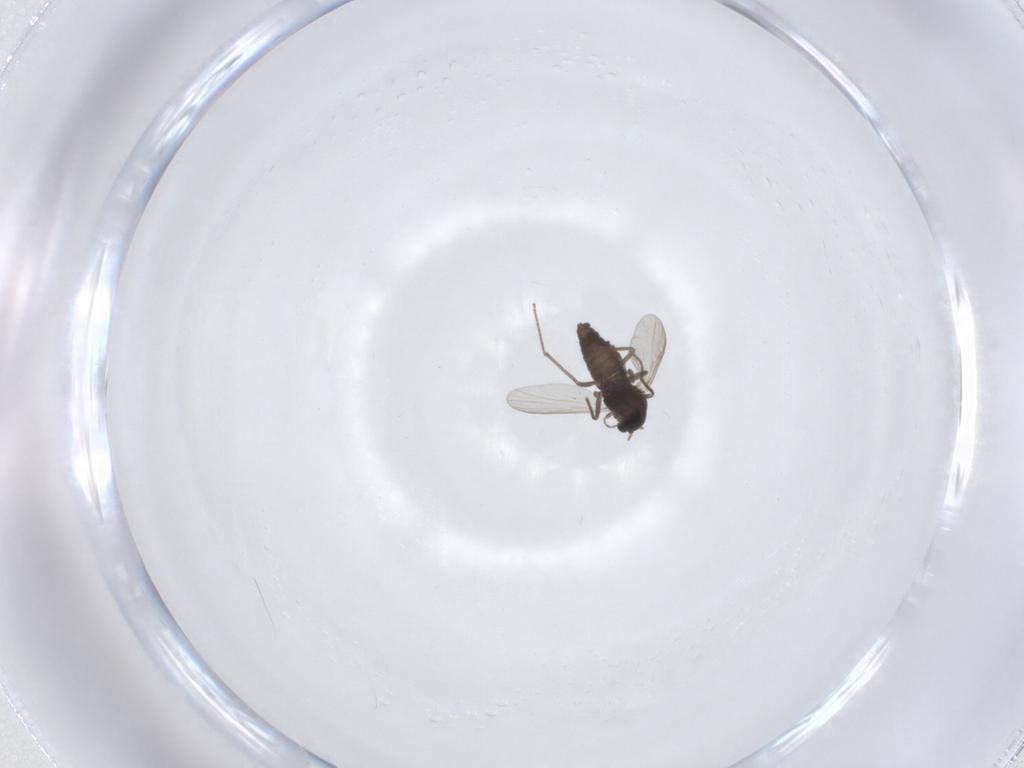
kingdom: Animalia
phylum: Arthropoda
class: Insecta
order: Diptera
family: Chironomidae
